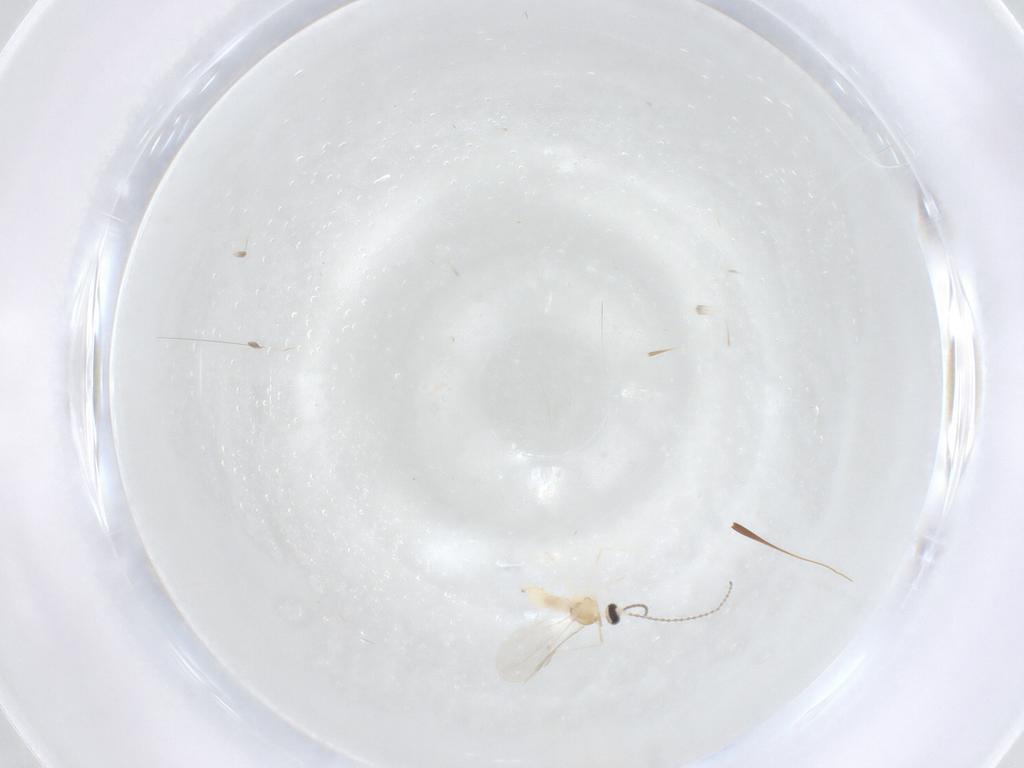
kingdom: Animalia
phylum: Arthropoda
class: Insecta
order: Diptera
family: Cecidomyiidae
